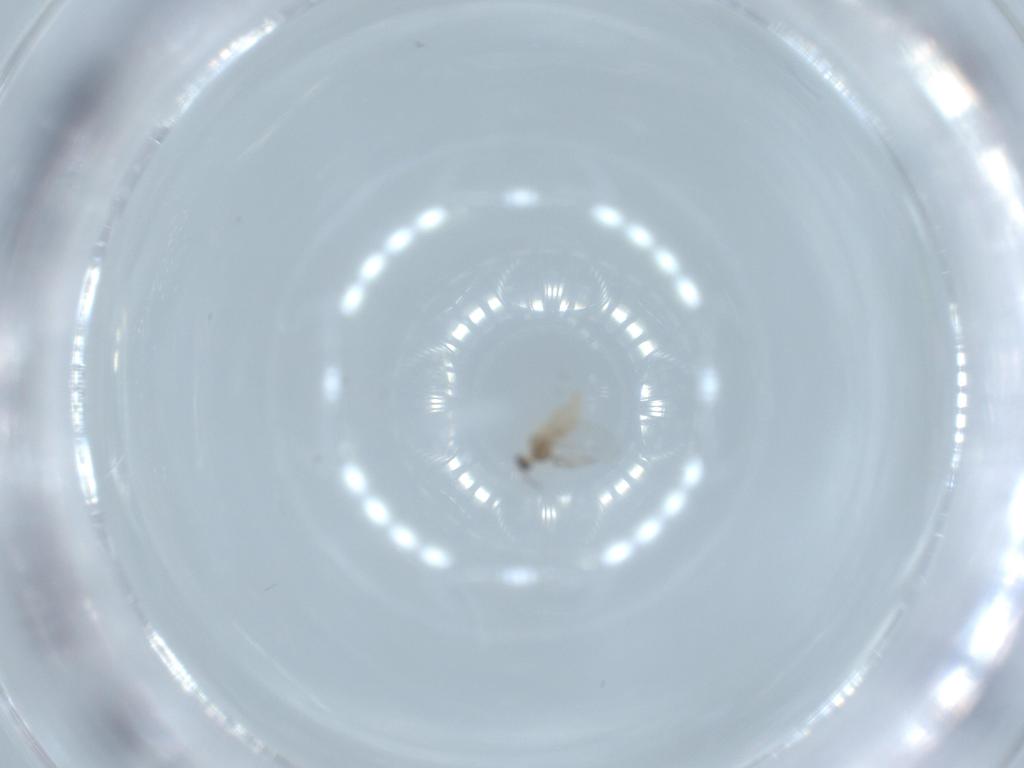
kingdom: Animalia
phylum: Arthropoda
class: Insecta
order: Diptera
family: Cecidomyiidae
